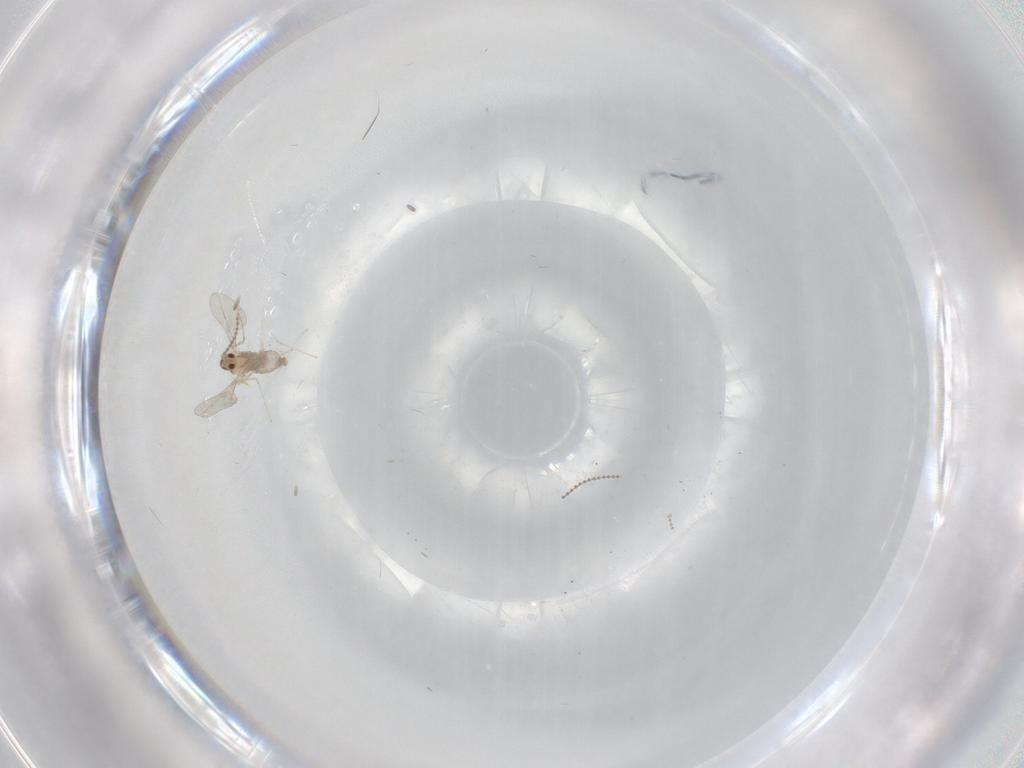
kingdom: Animalia
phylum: Arthropoda
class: Insecta
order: Diptera
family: Cecidomyiidae
